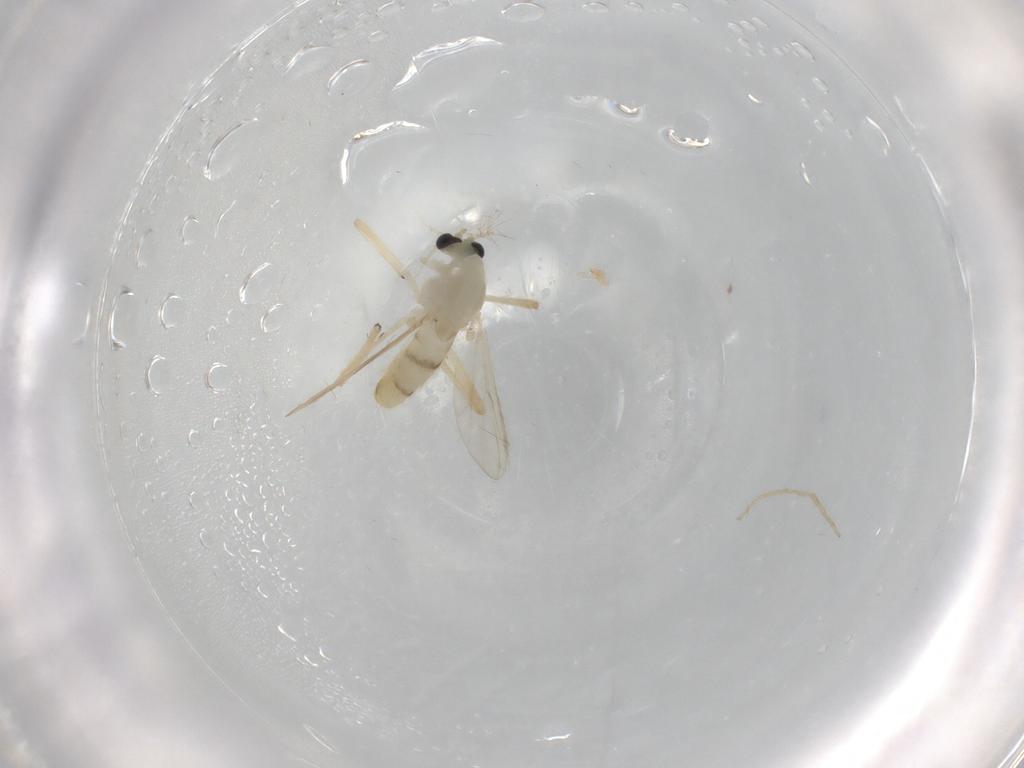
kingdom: Animalia
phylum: Arthropoda
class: Insecta
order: Diptera
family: Chironomidae
